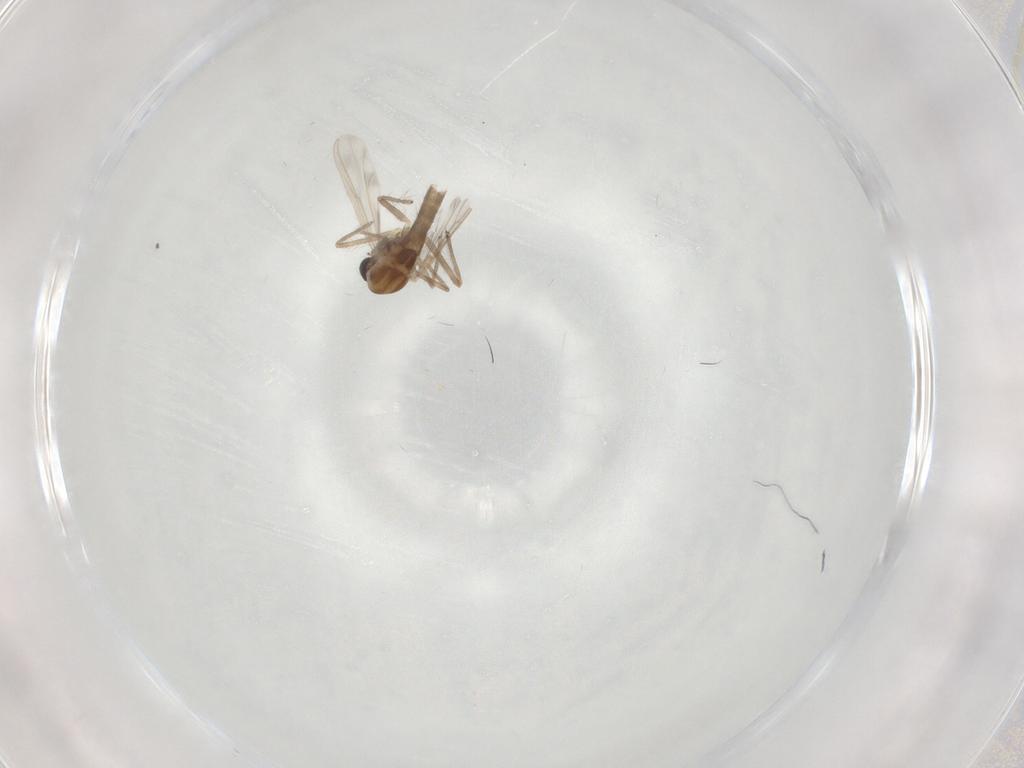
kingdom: Animalia
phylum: Arthropoda
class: Insecta
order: Diptera
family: Chironomidae
